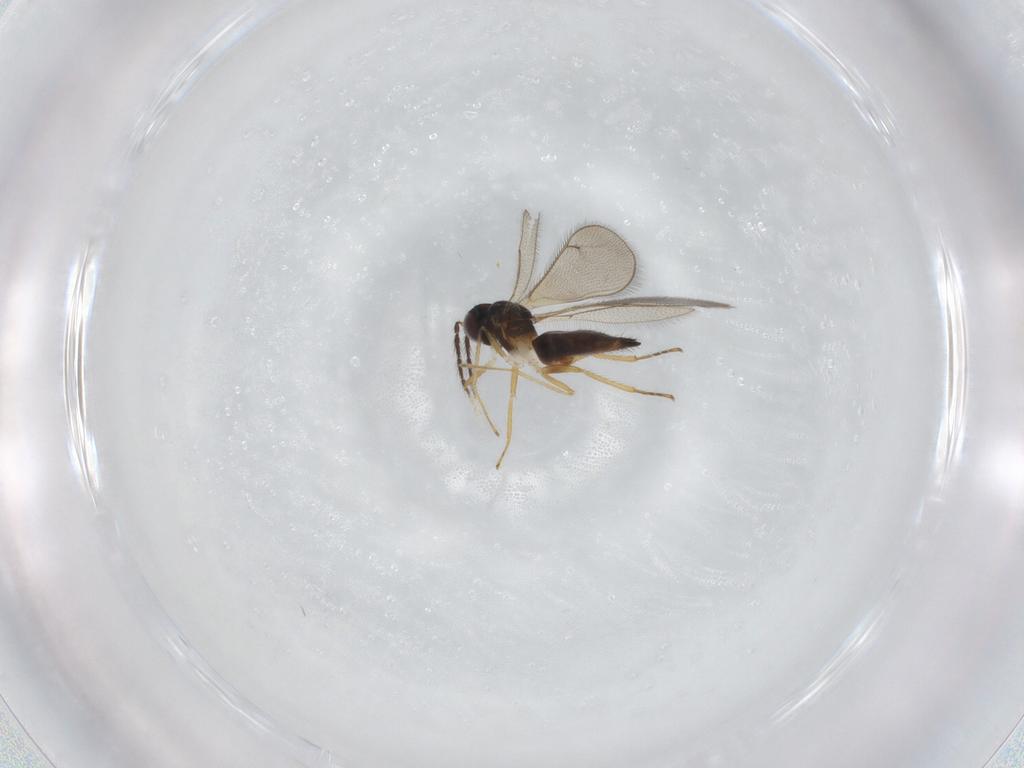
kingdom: Animalia
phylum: Arthropoda
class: Insecta
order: Hymenoptera
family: Eulophidae
